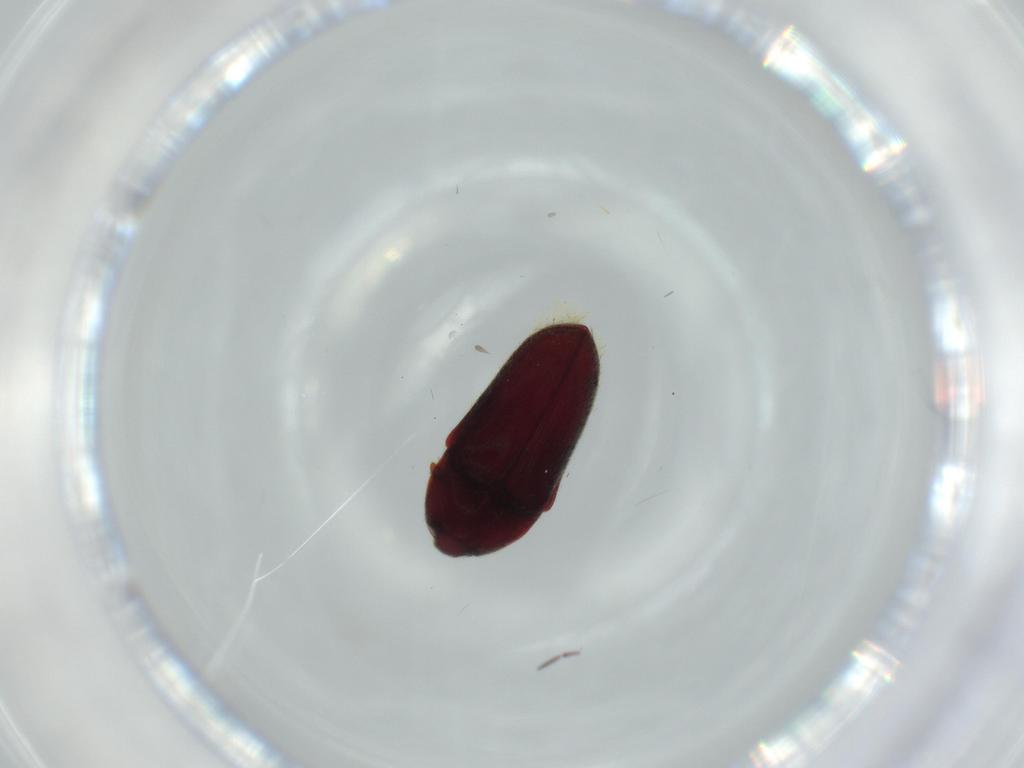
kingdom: Animalia
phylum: Arthropoda
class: Insecta
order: Coleoptera
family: Throscidae
